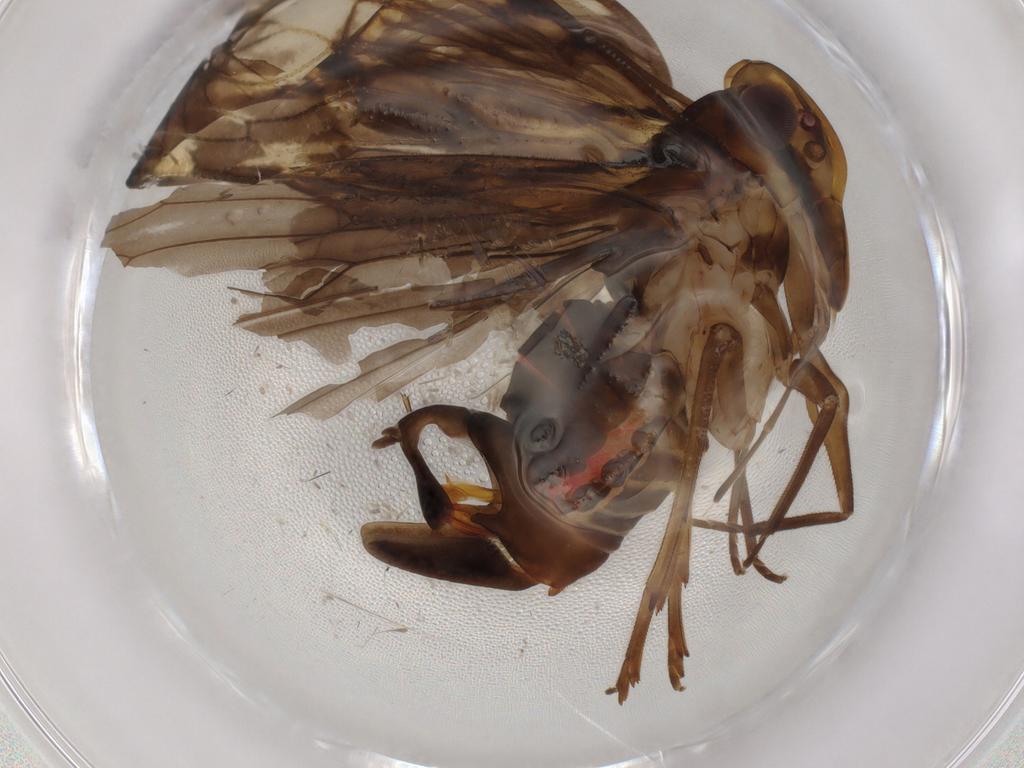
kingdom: Animalia
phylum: Arthropoda
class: Insecta
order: Hemiptera
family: Cixiidae
